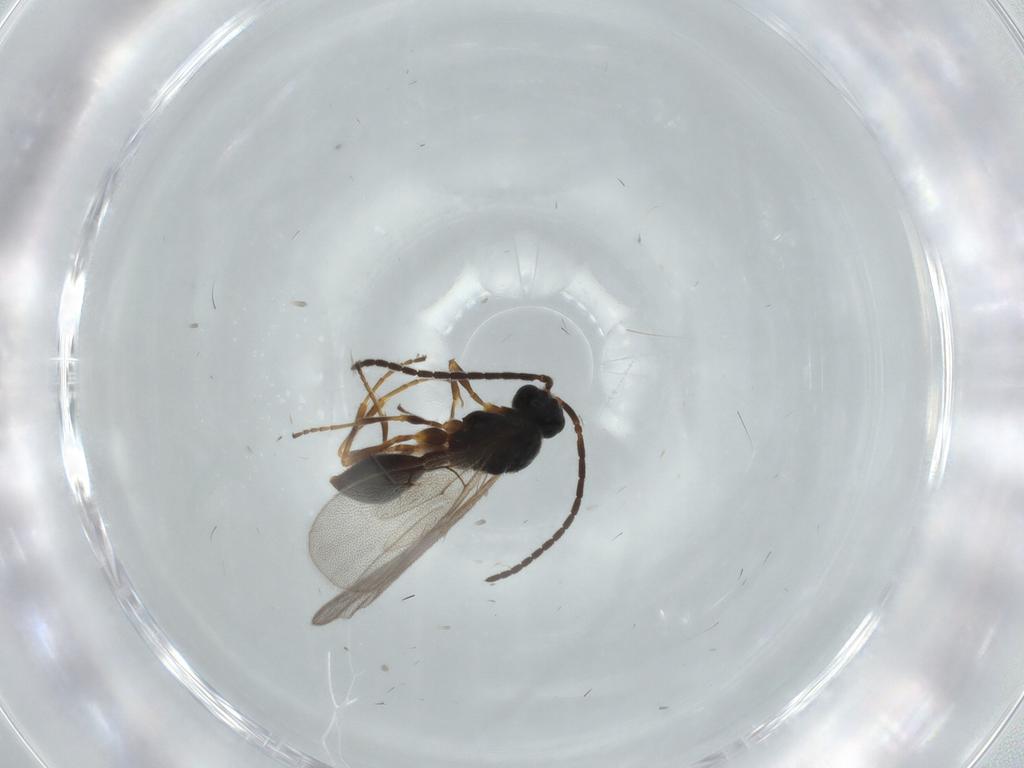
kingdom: Animalia
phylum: Arthropoda
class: Insecta
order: Hymenoptera
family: Diapriidae
